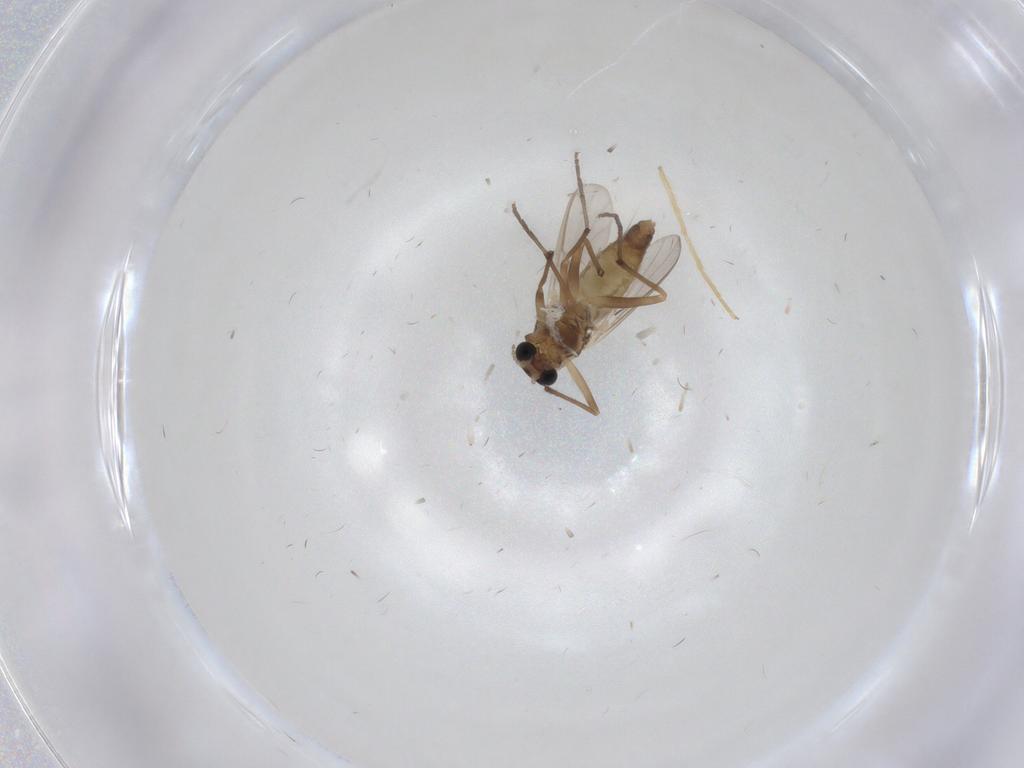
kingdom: Animalia
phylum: Arthropoda
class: Insecta
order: Diptera
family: Chironomidae
